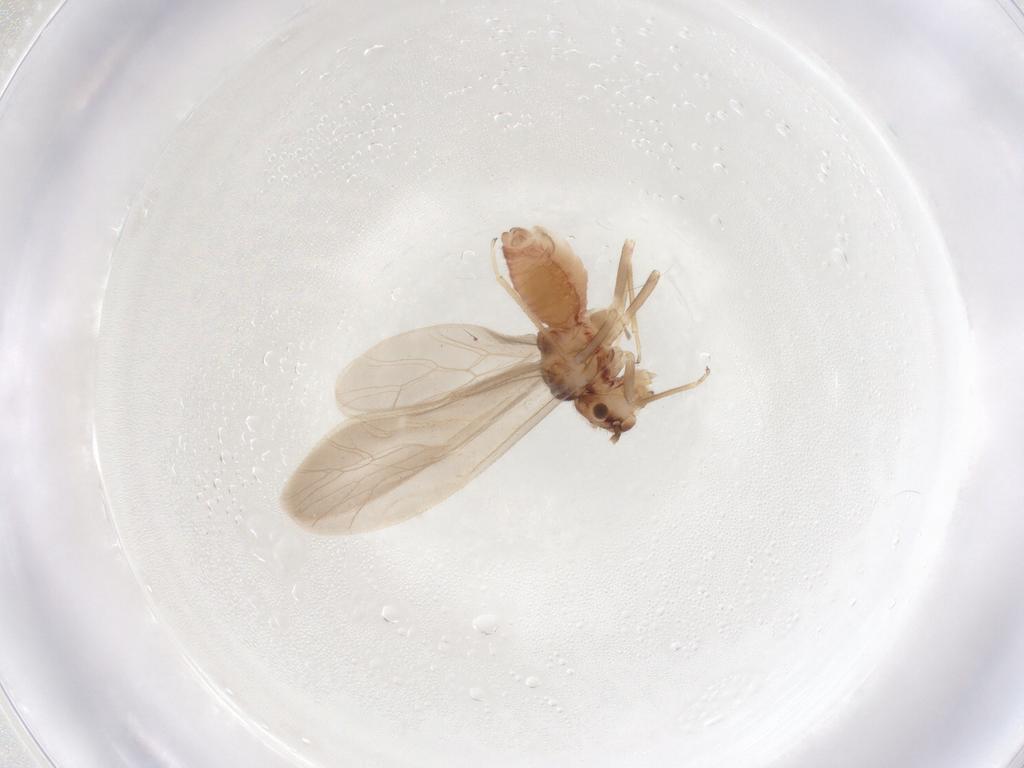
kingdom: Animalia
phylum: Arthropoda
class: Insecta
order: Psocodea
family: Caeciliusidae
